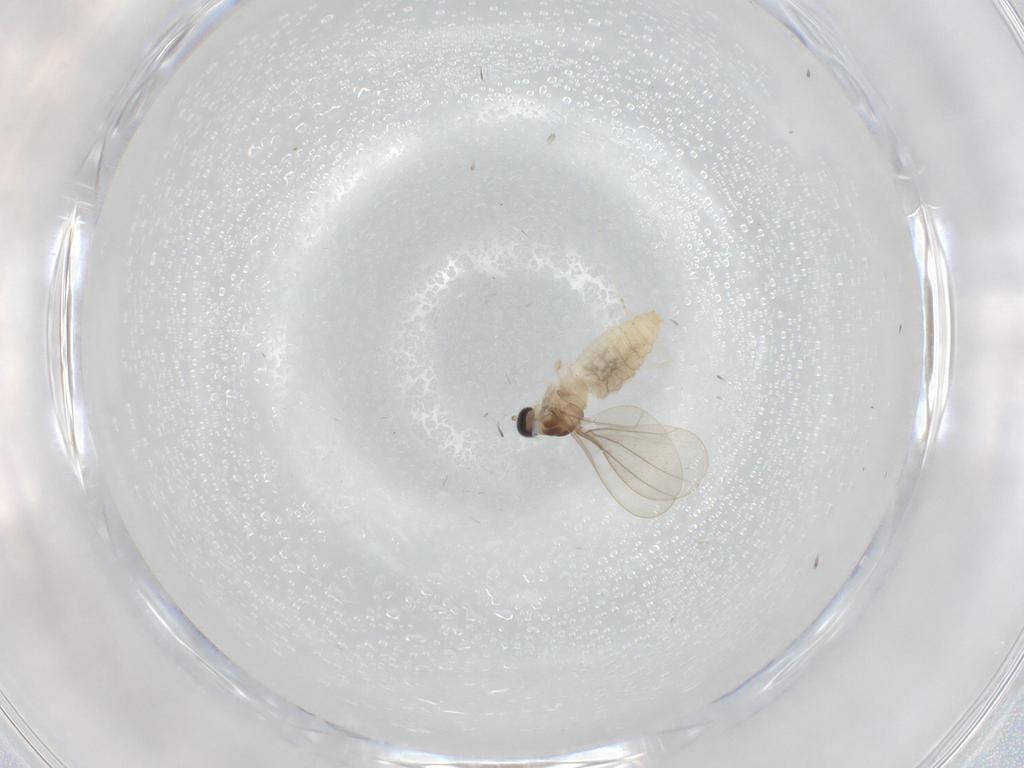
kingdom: Animalia
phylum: Arthropoda
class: Insecta
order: Diptera
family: Cecidomyiidae
